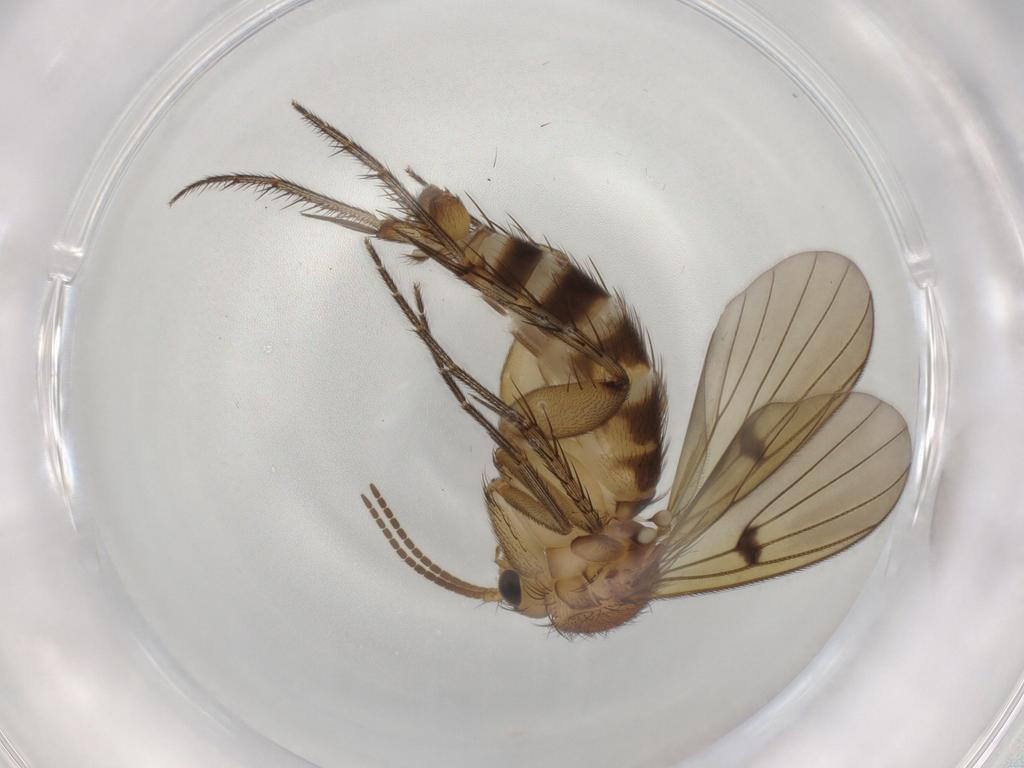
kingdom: Animalia
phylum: Arthropoda
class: Insecta
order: Diptera
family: Mycetophilidae
